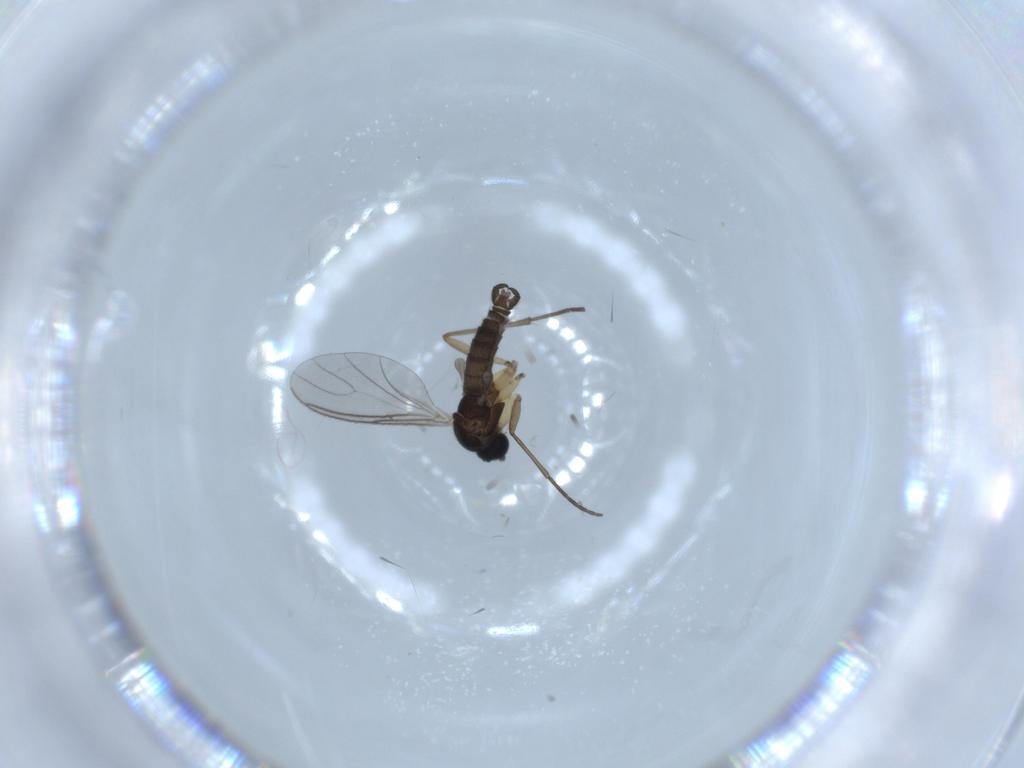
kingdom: Animalia
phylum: Arthropoda
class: Insecta
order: Diptera
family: Sciaridae
